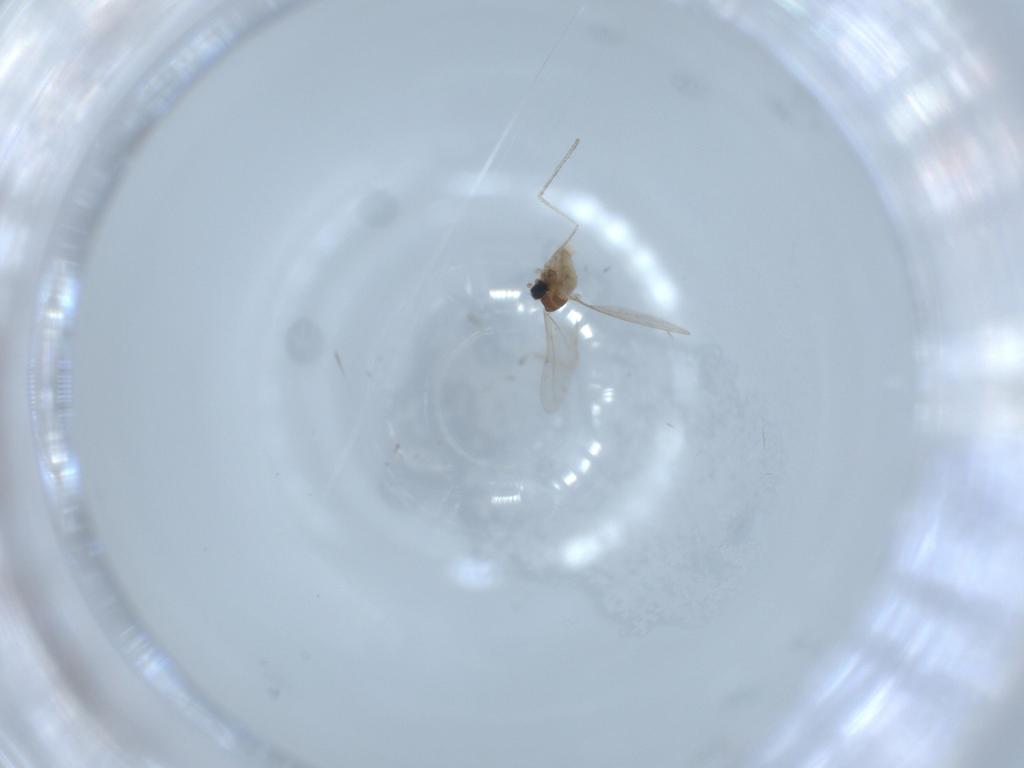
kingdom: Animalia
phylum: Arthropoda
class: Insecta
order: Diptera
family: Cecidomyiidae
